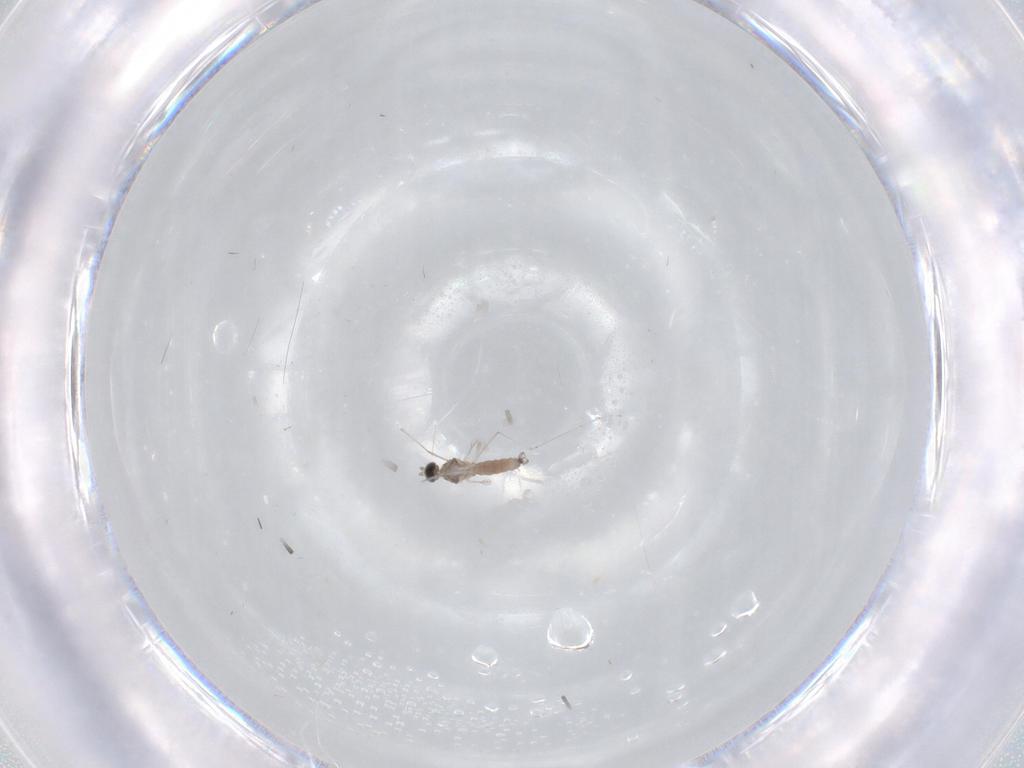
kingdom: Animalia
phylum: Arthropoda
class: Insecta
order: Diptera
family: Cecidomyiidae
